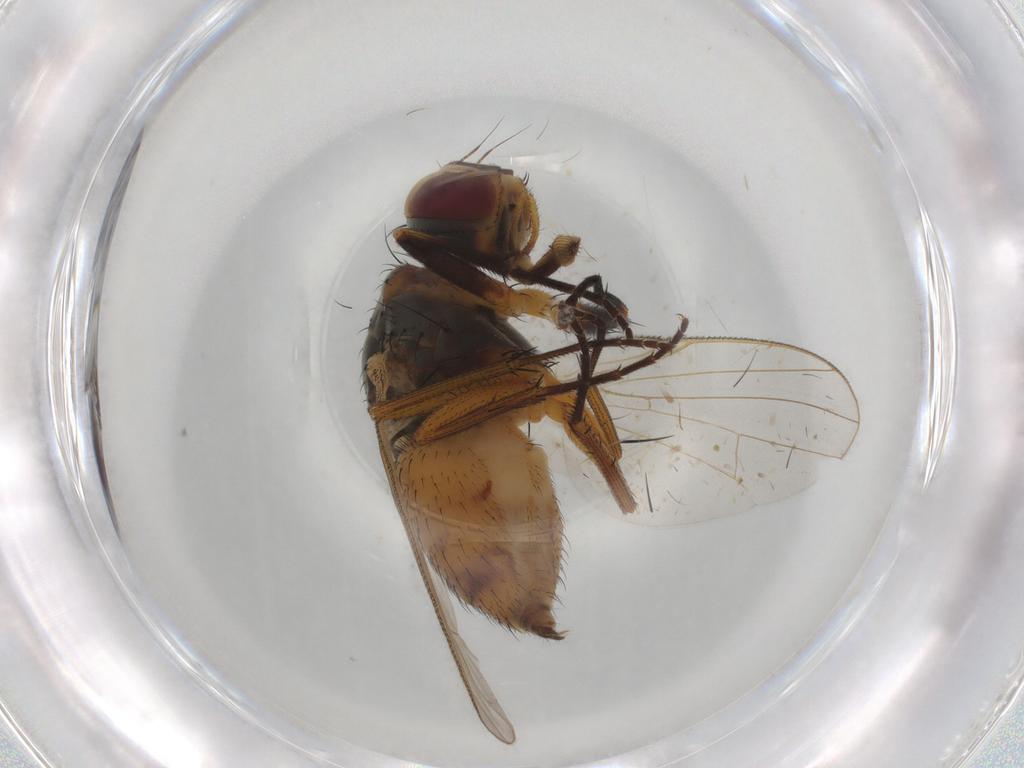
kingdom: Animalia
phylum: Arthropoda
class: Insecta
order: Diptera
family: Muscidae
